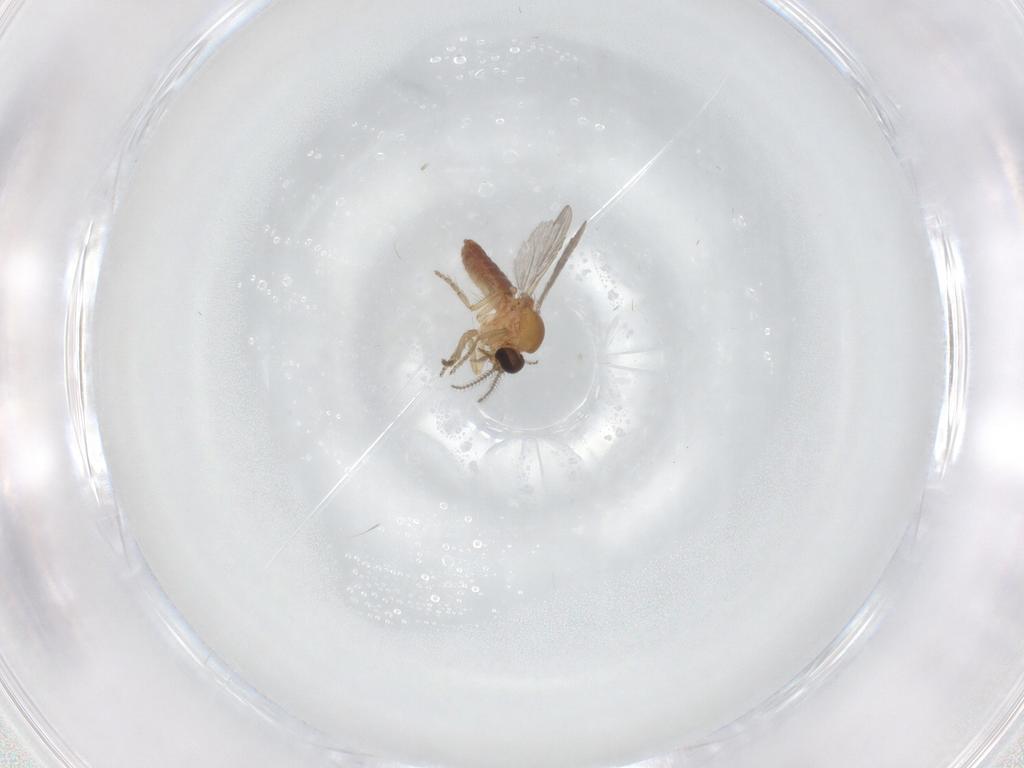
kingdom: Animalia
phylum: Arthropoda
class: Insecta
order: Diptera
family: Ceratopogonidae
